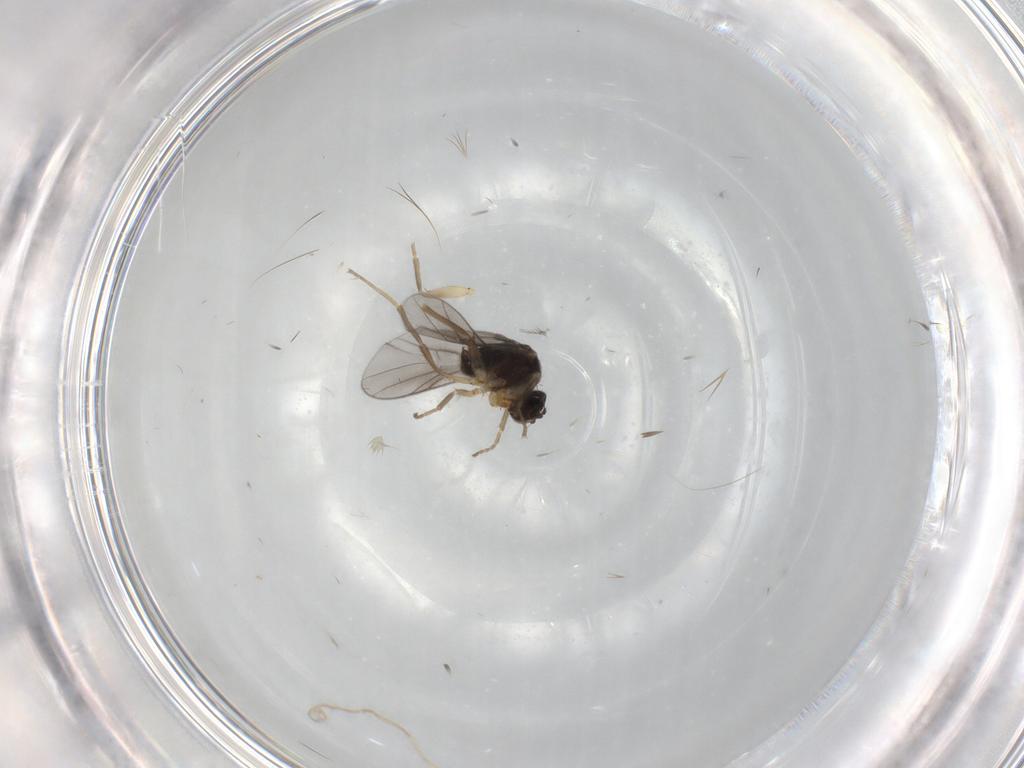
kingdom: Animalia
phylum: Arthropoda
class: Insecta
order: Diptera
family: Hybotidae
